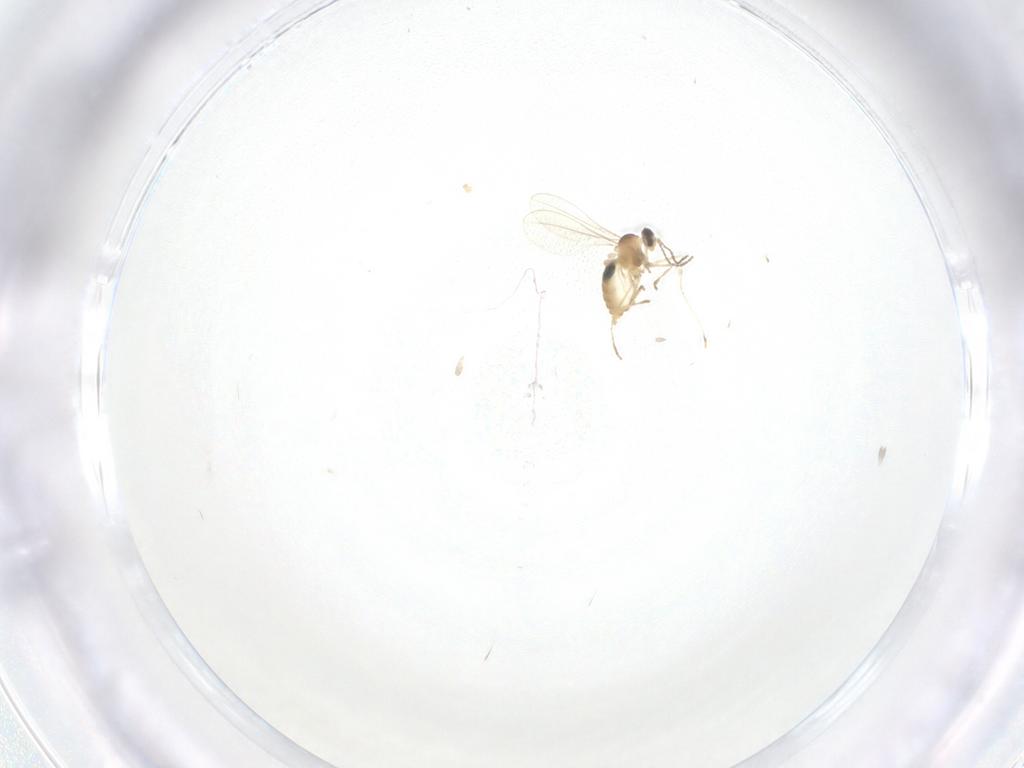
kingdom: Animalia
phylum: Arthropoda
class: Insecta
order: Diptera
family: Cecidomyiidae
